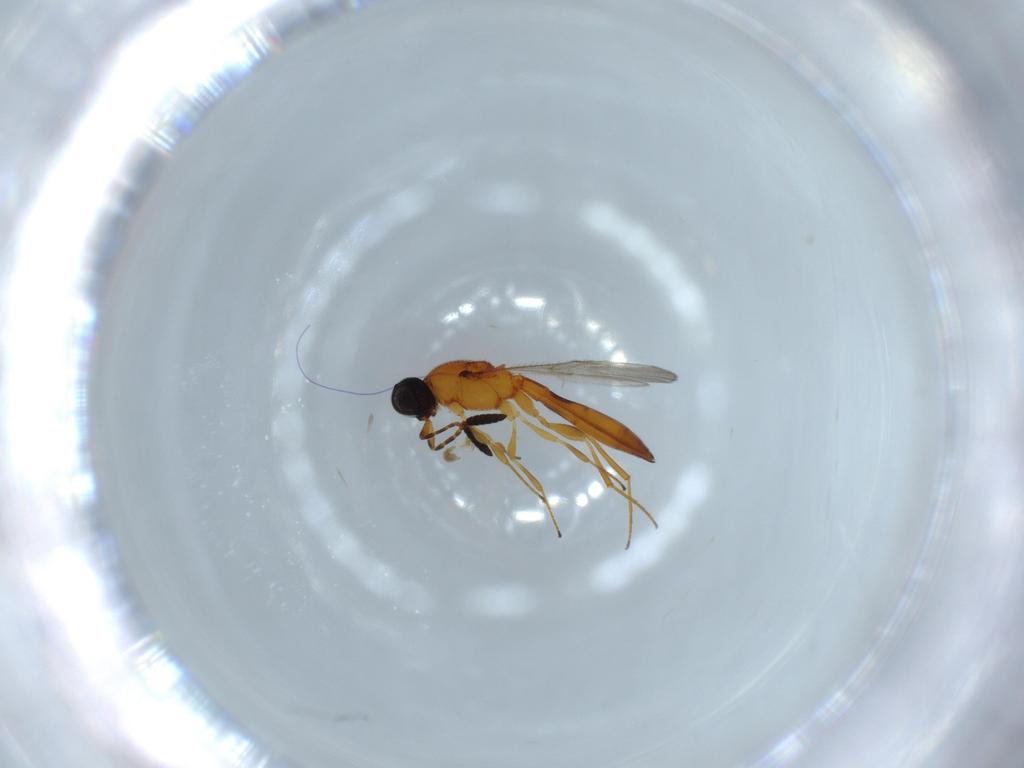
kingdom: Animalia
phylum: Arthropoda
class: Insecta
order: Hymenoptera
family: Scelionidae
